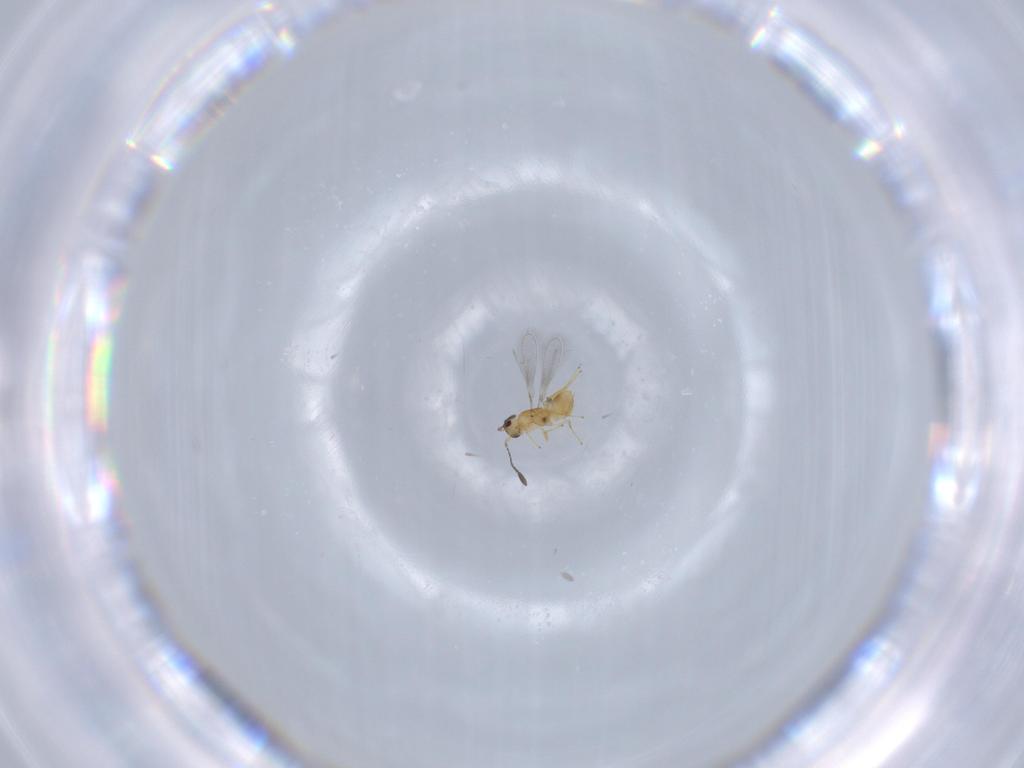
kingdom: Animalia
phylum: Arthropoda
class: Insecta
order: Hymenoptera
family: Mymaridae
